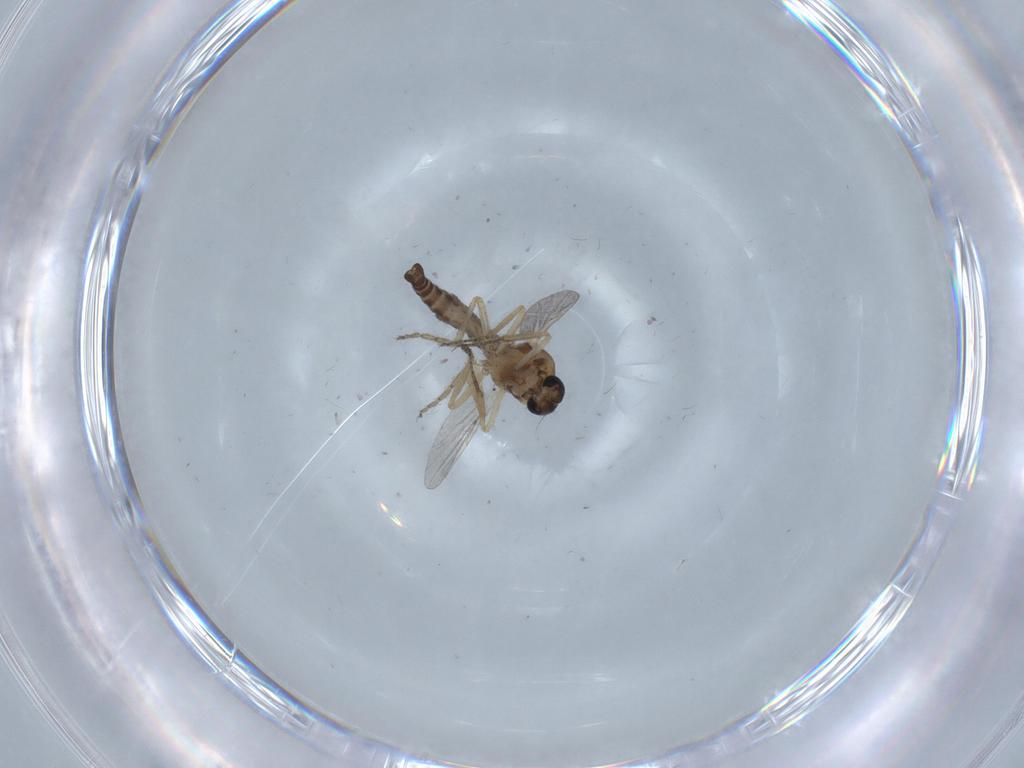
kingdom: Animalia
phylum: Arthropoda
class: Insecta
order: Diptera
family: Ceratopogonidae
